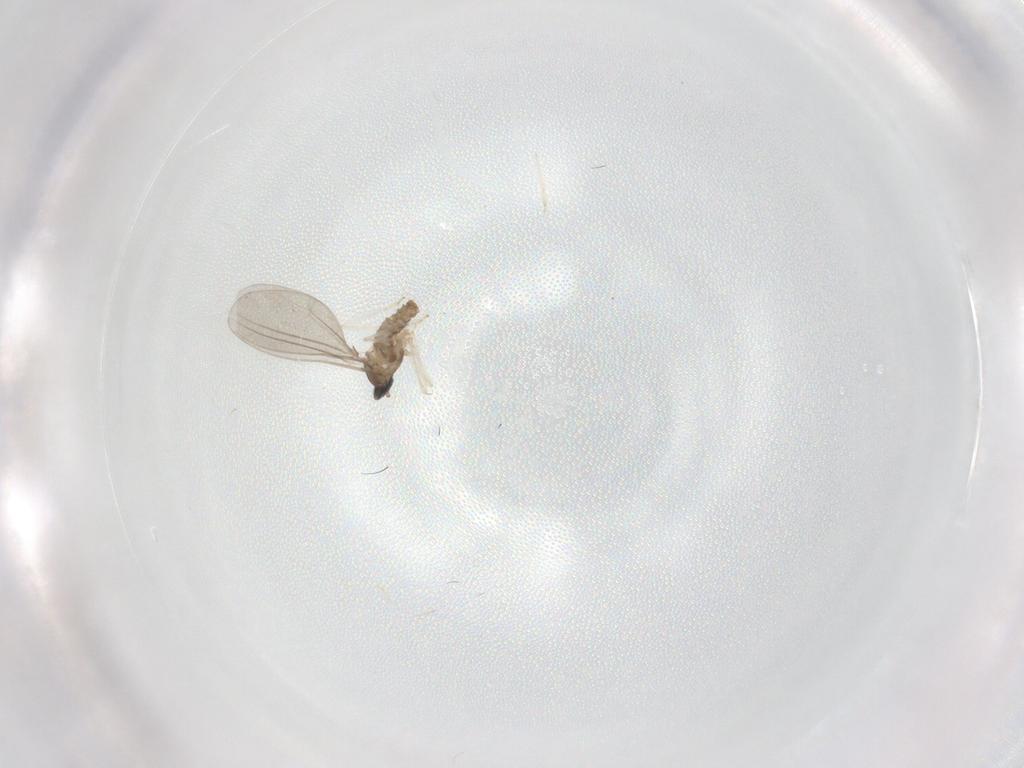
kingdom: Animalia
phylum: Arthropoda
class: Insecta
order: Diptera
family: Cecidomyiidae
